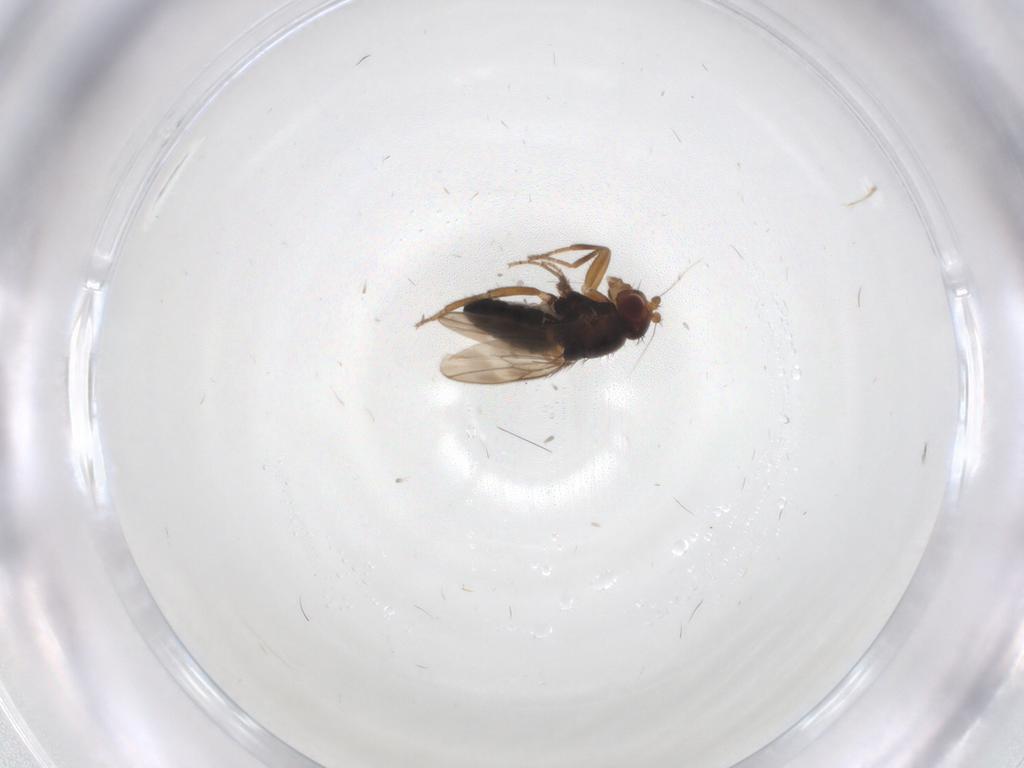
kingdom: Animalia
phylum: Arthropoda
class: Insecta
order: Diptera
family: Sphaeroceridae
